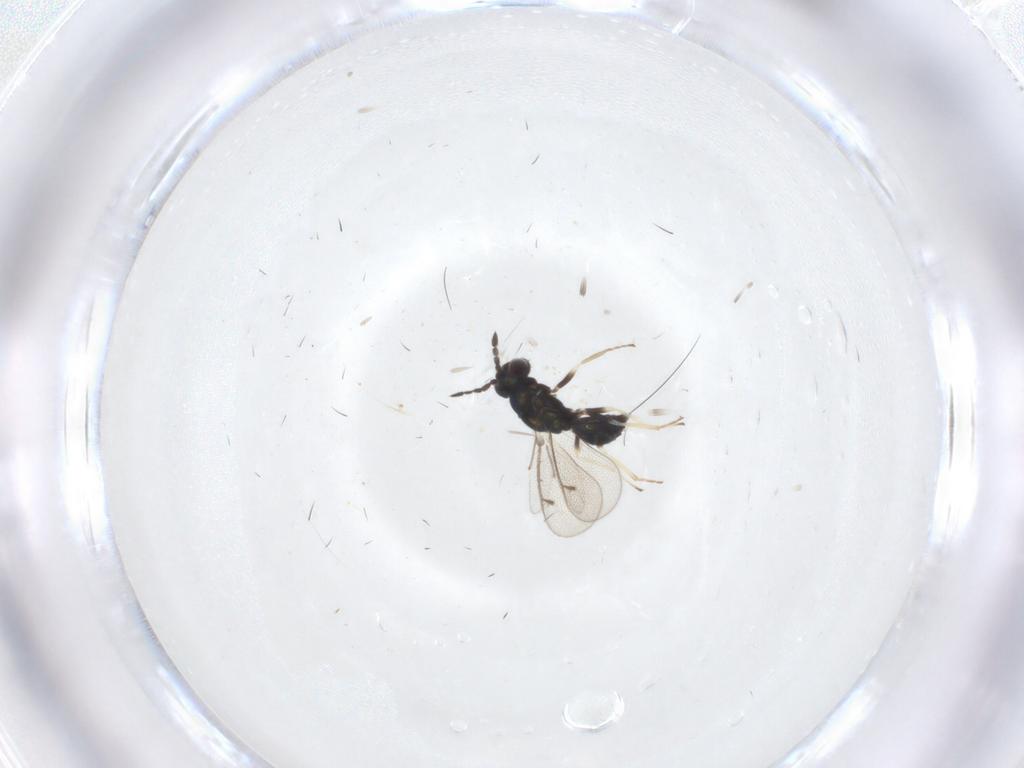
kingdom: Animalia
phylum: Arthropoda
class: Insecta
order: Hymenoptera
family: Eulophidae
